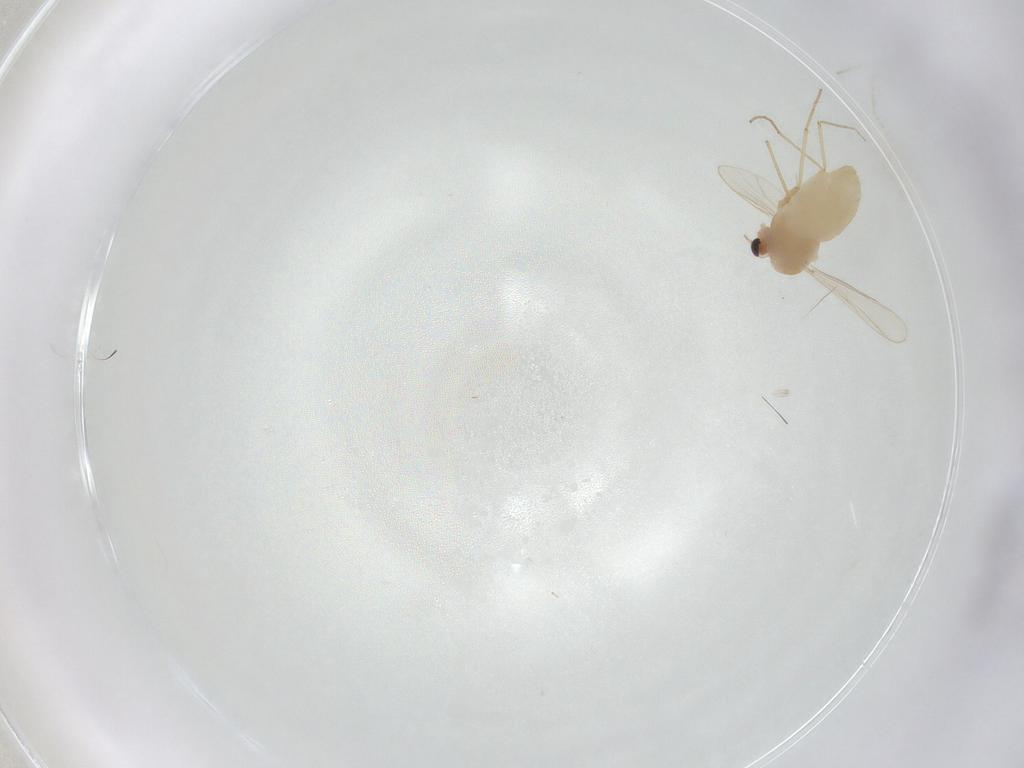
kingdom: Animalia
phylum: Arthropoda
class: Insecta
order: Diptera
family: Chironomidae
